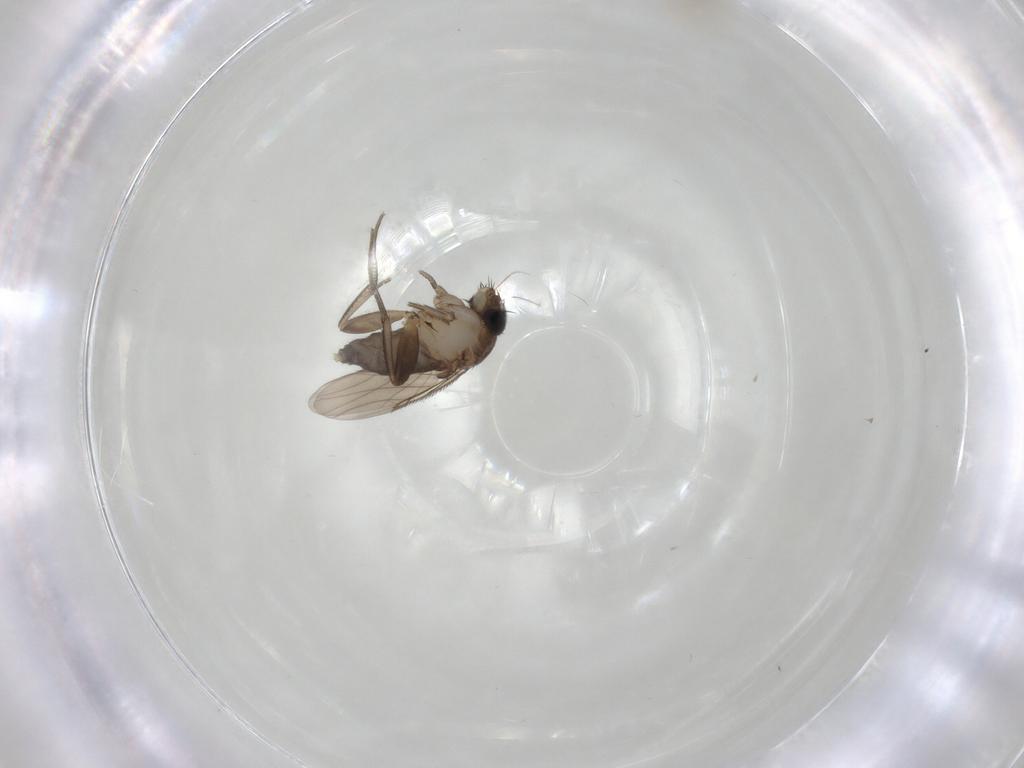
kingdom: Animalia
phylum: Arthropoda
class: Insecta
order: Diptera
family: Phoridae
